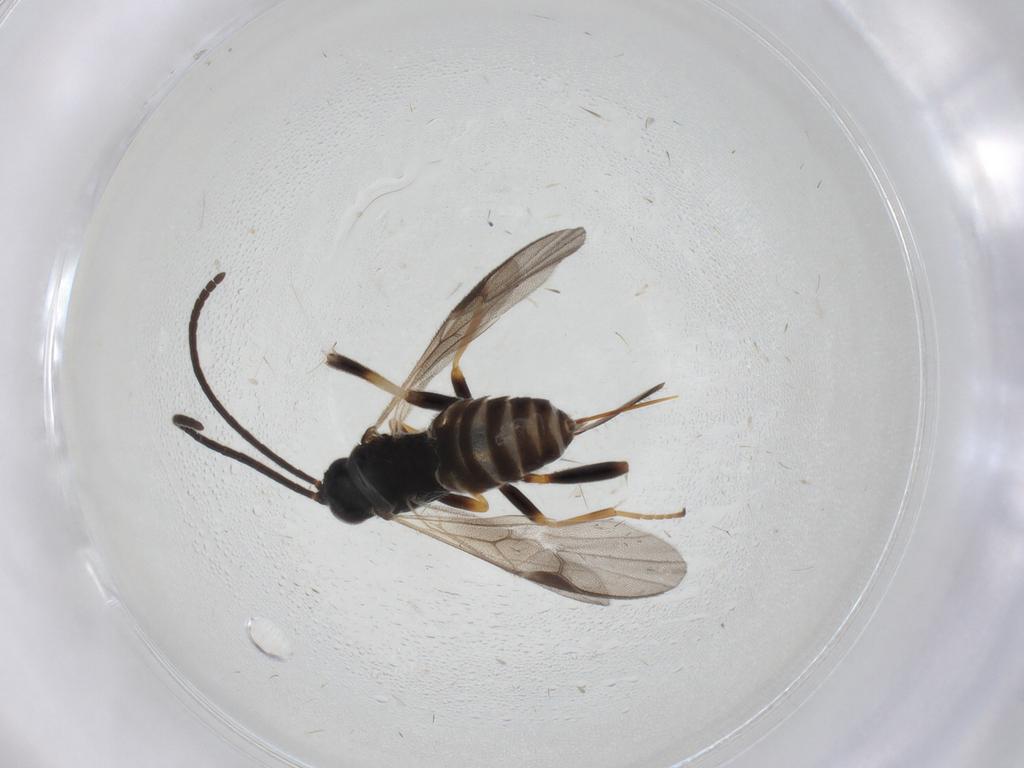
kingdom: Animalia
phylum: Arthropoda
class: Insecta
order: Hymenoptera
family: Braconidae
